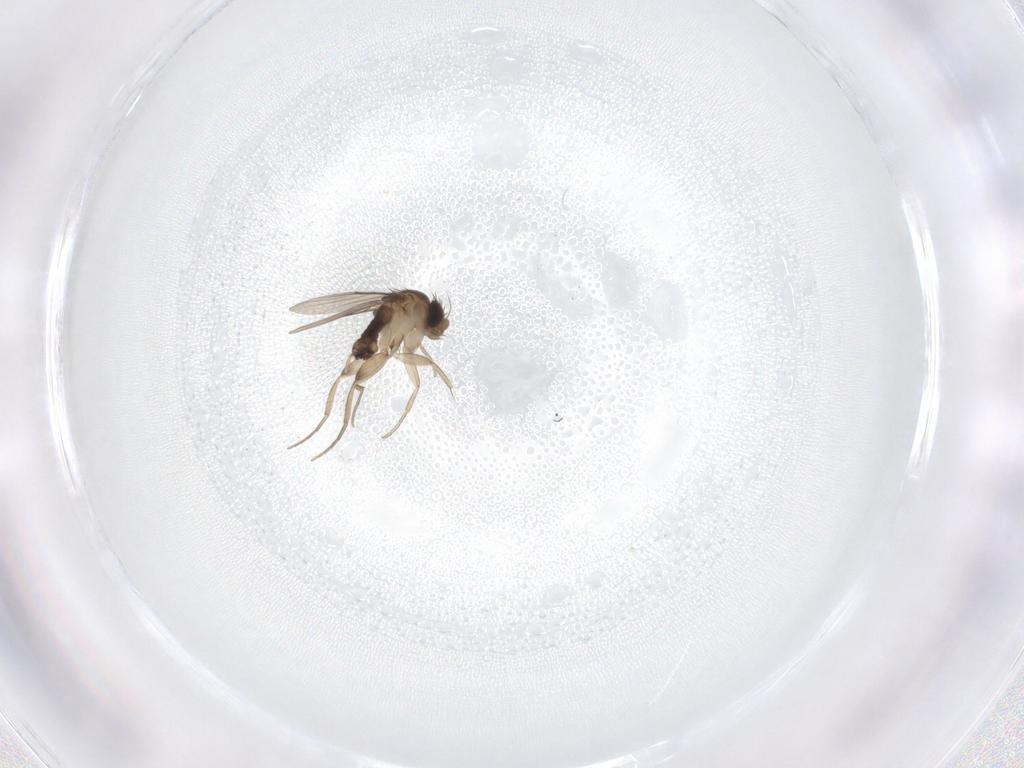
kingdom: Animalia
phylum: Arthropoda
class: Insecta
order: Diptera
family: Phoridae
